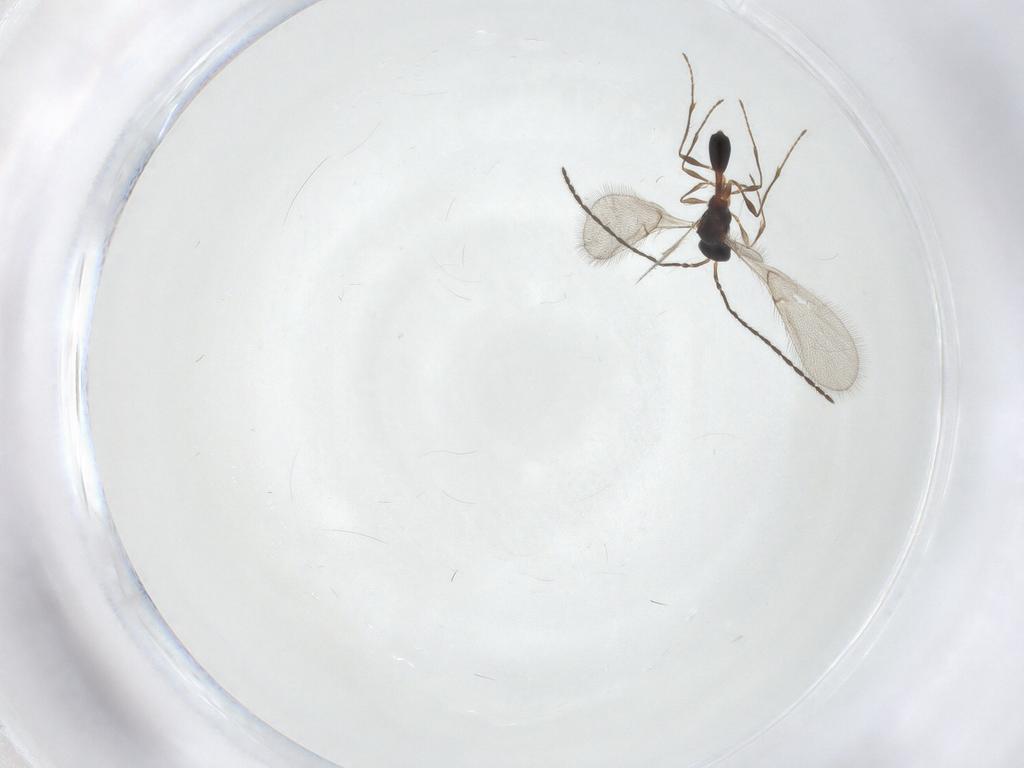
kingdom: Animalia
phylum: Arthropoda
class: Insecta
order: Hymenoptera
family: Diapriidae
